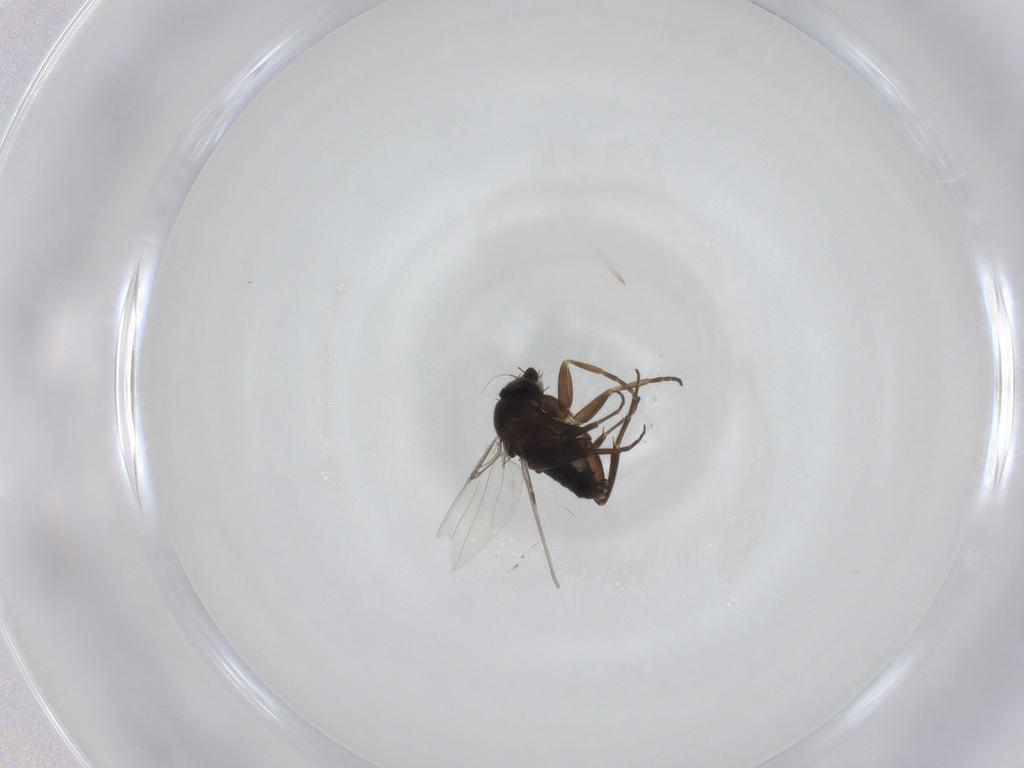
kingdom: Animalia
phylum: Arthropoda
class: Insecta
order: Diptera
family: Phoridae
